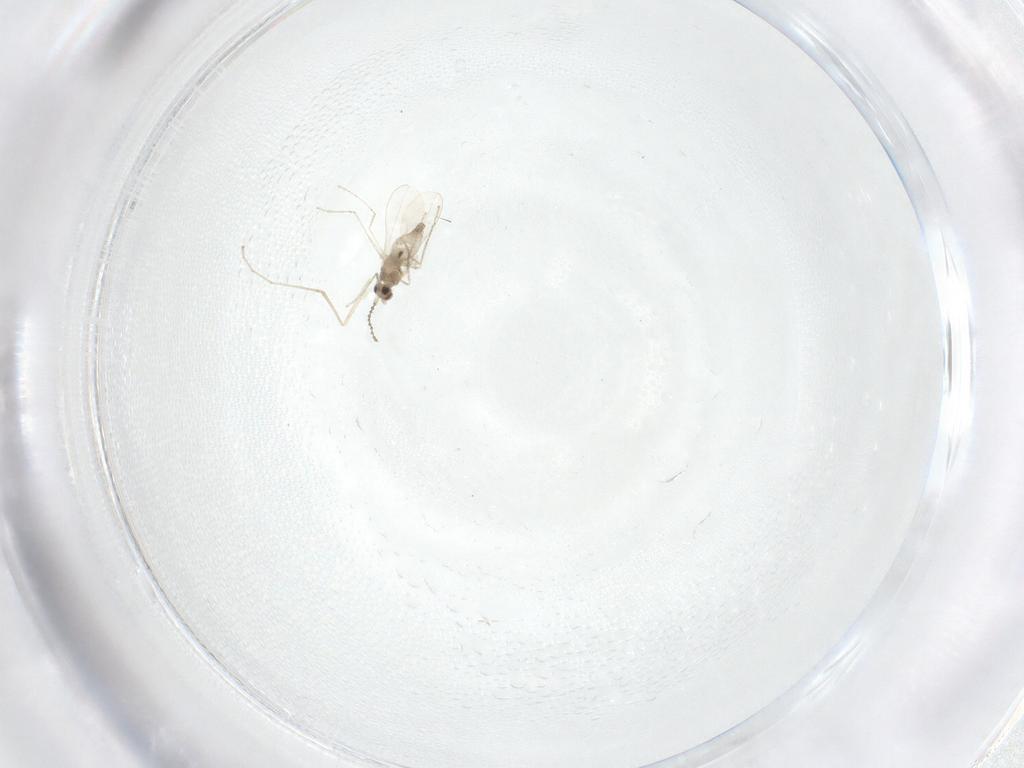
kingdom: Animalia
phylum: Arthropoda
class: Insecta
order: Diptera
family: Cecidomyiidae
